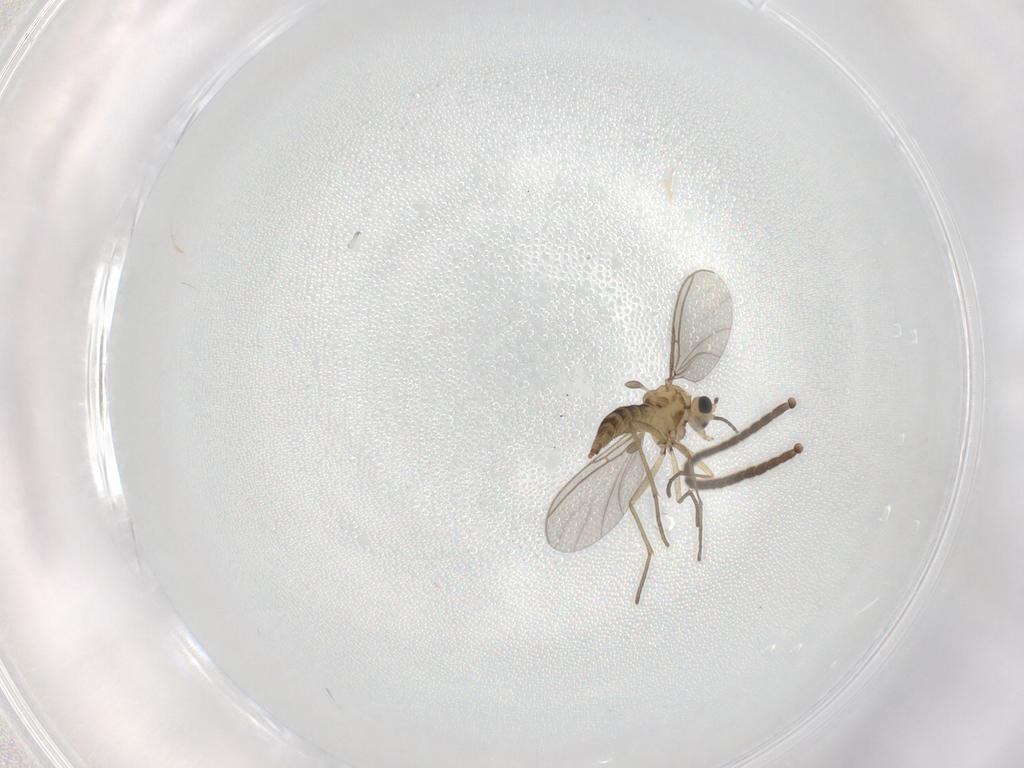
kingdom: Animalia
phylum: Arthropoda
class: Insecta
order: Diptera
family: Sciaridae
